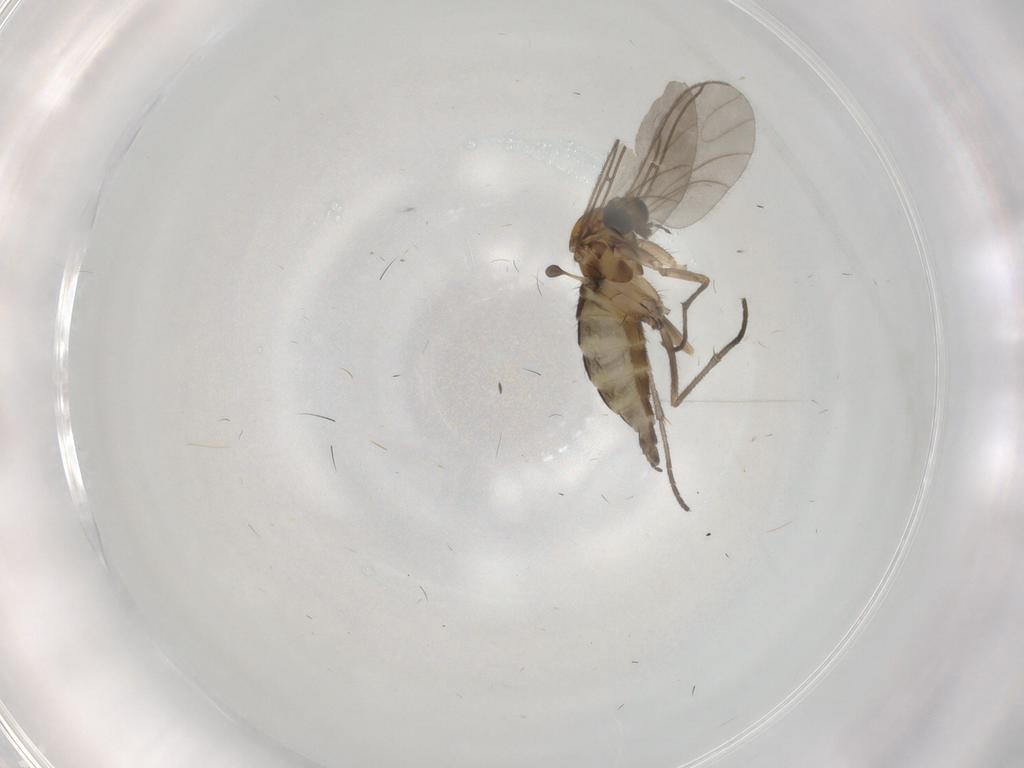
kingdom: Animalia
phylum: Arthropoda
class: Insecta
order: Diptera
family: Sciaridae
